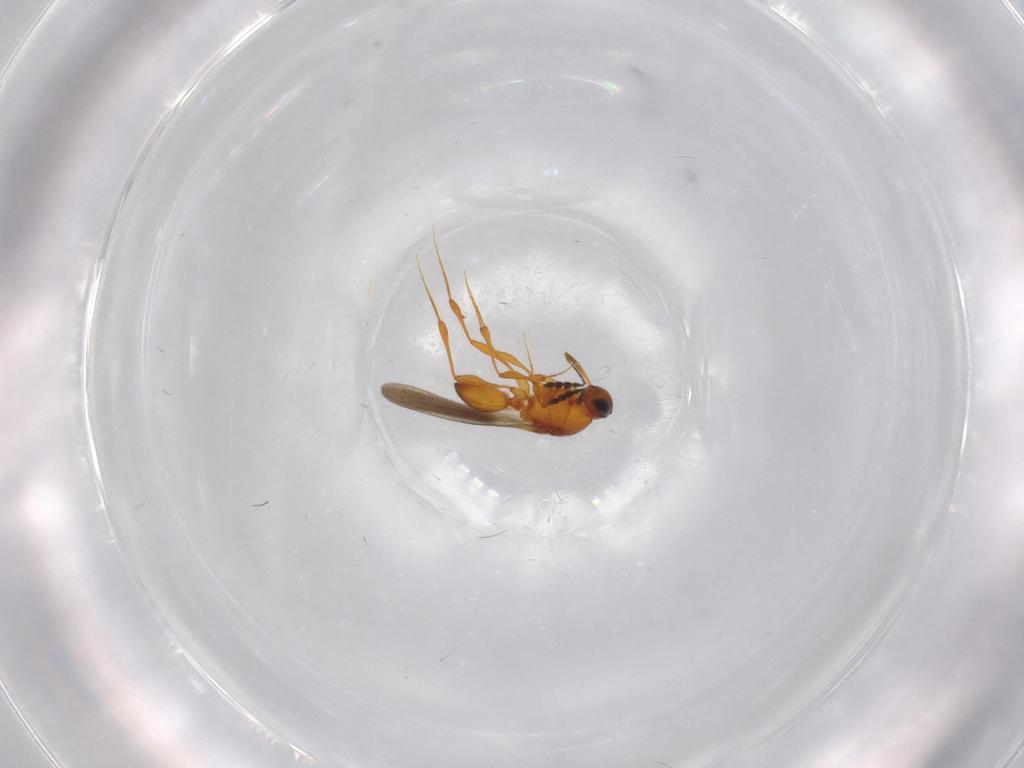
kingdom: Animalia
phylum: Arthropoda
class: Insecta
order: Hymenoptera
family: Platygastridae
